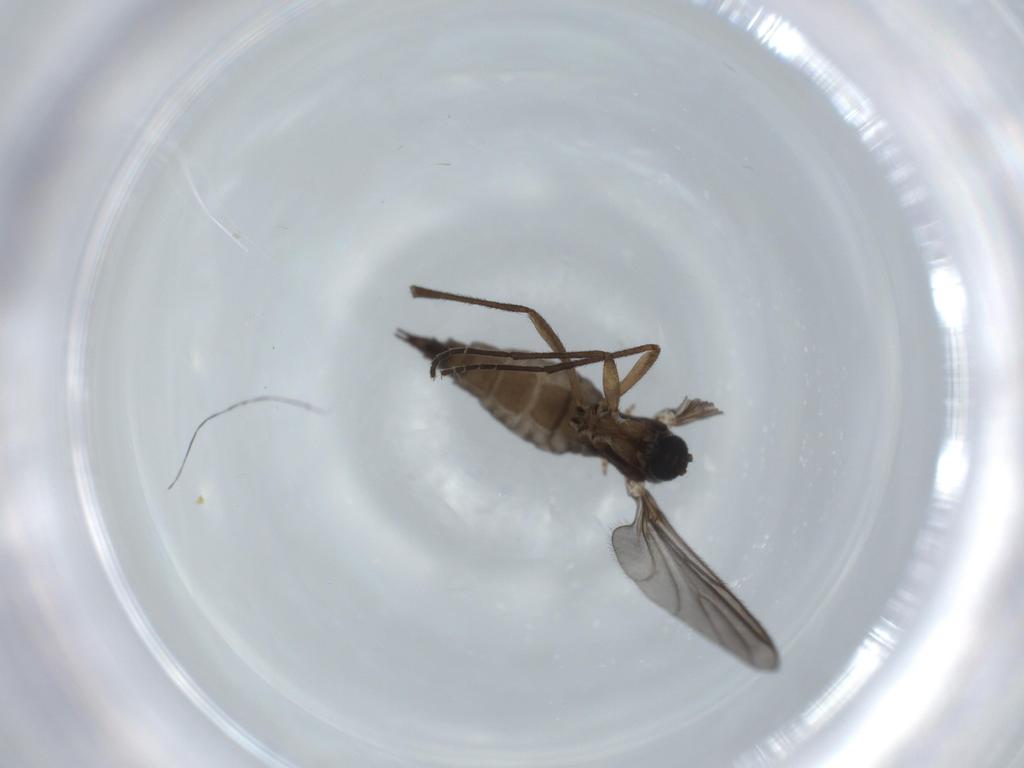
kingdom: Animalia
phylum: Arthropoda
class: Insecta
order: Diptera
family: Sciaridae
